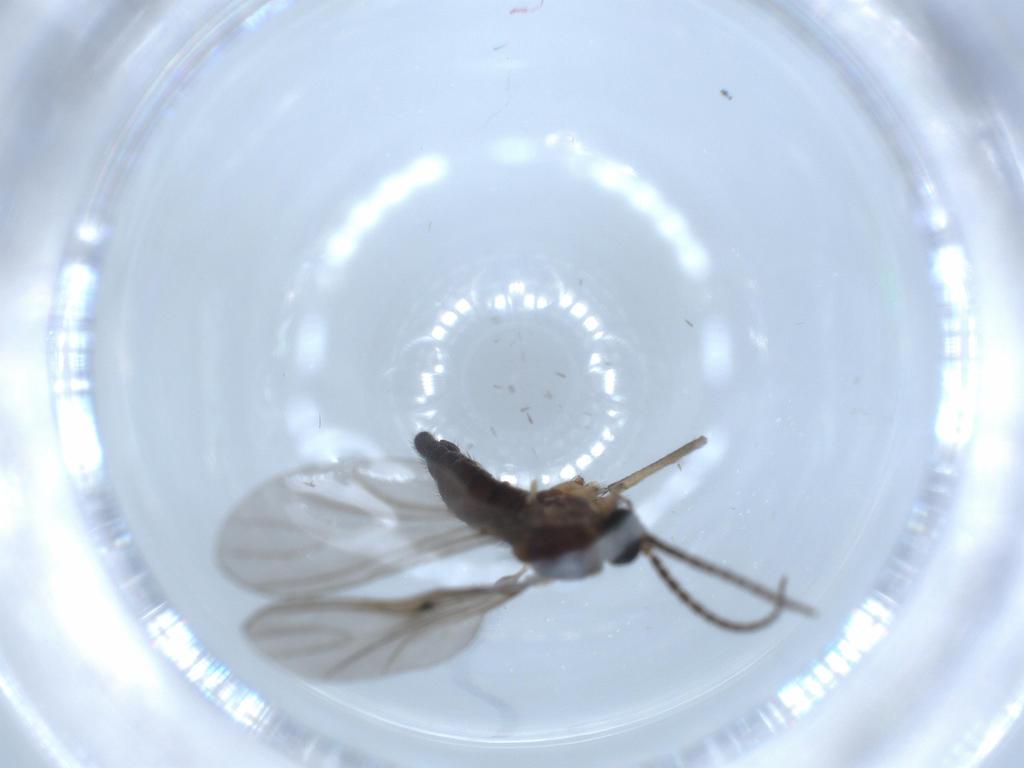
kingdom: Animalia
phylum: Arthropoda
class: Insecta
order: Diptera
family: Sciaridae
